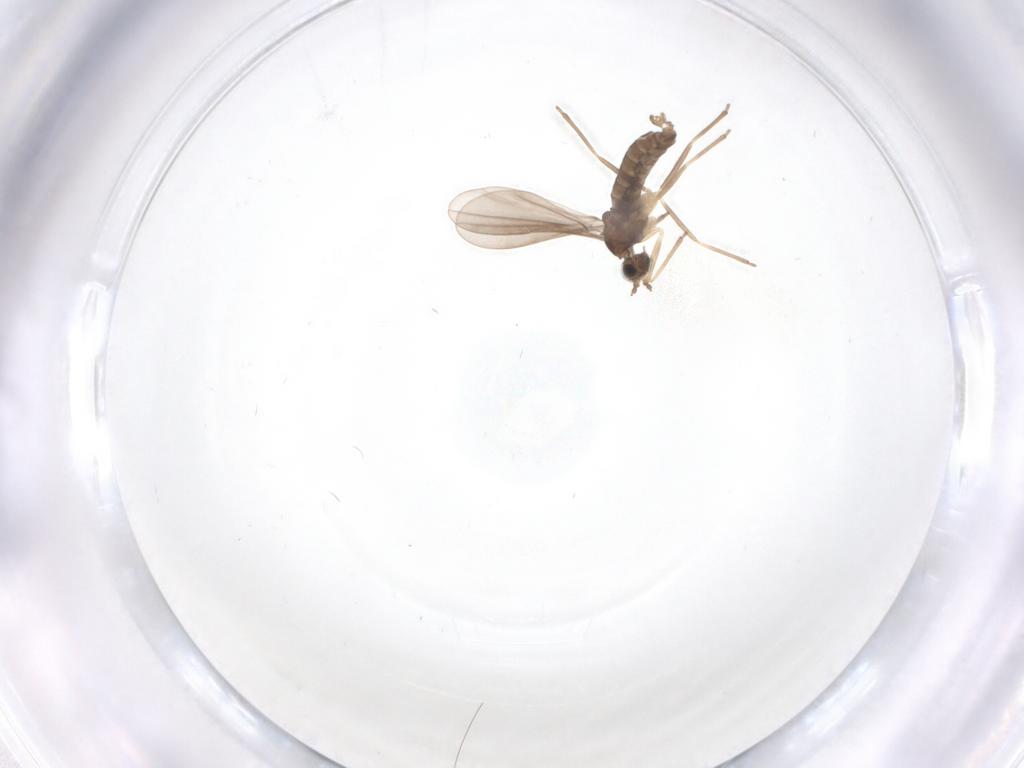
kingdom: Animalia
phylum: Arthropoda
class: Insecta
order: Diptera
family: Cecidomyiidae
